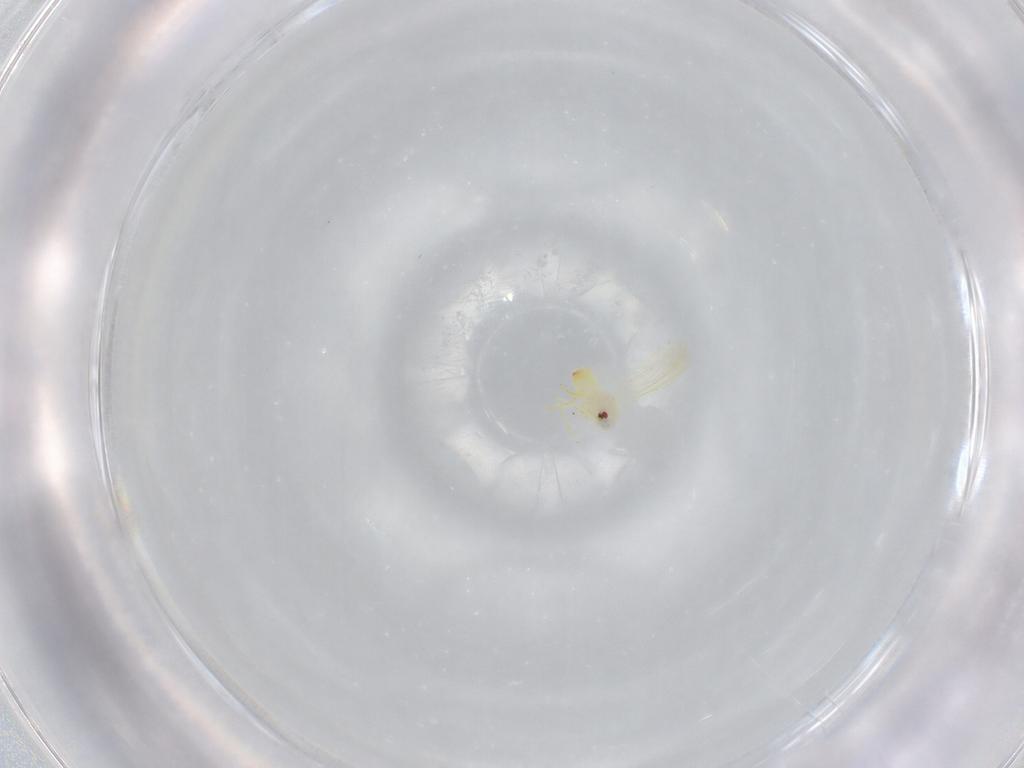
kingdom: Animalia
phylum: Arthropoda
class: Insecta
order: Hemiptera
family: Aleyrodidae
